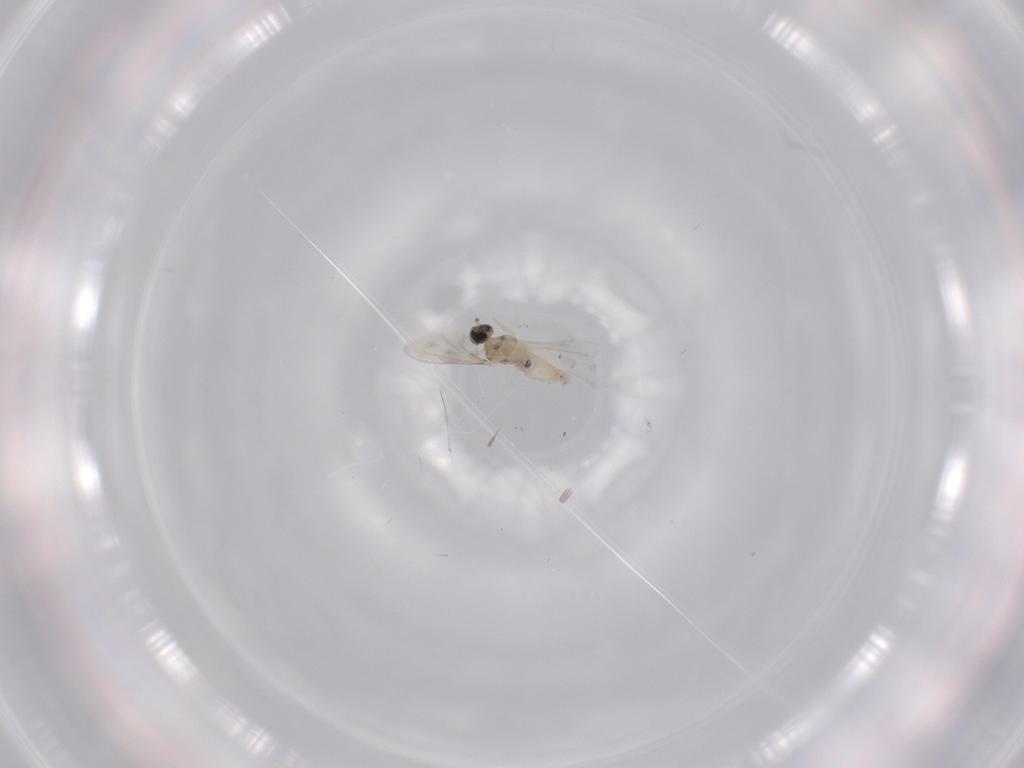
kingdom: Animalia
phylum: Arthropoda
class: Insecta
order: Diptera
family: Cecidomyiidae
